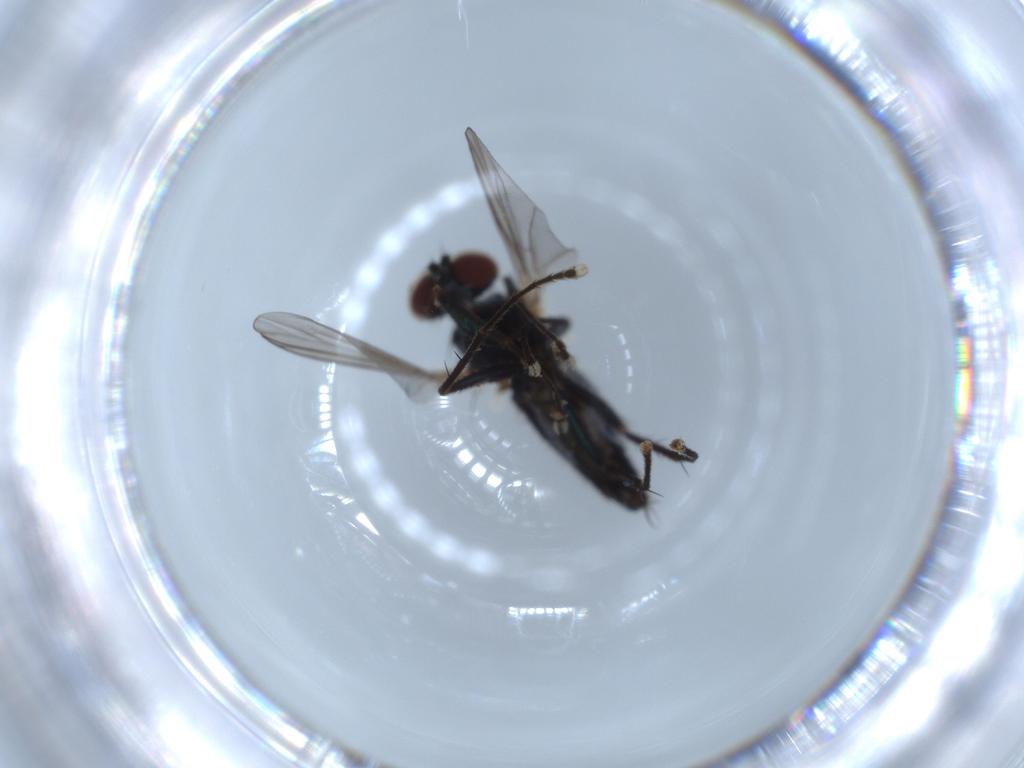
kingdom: Animalia
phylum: Arthropoda
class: Insecta
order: Diptera
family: Dolichopodidae
